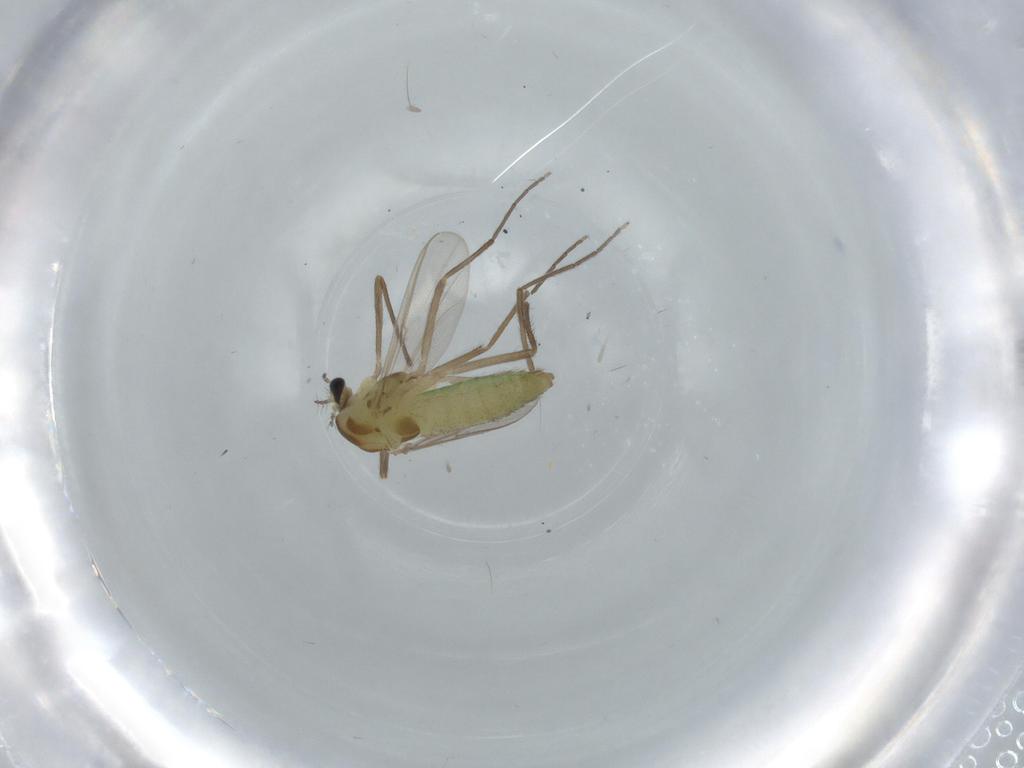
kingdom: Animalia
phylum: Arthropoda
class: Insecta
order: Diptera
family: Chironomidae
